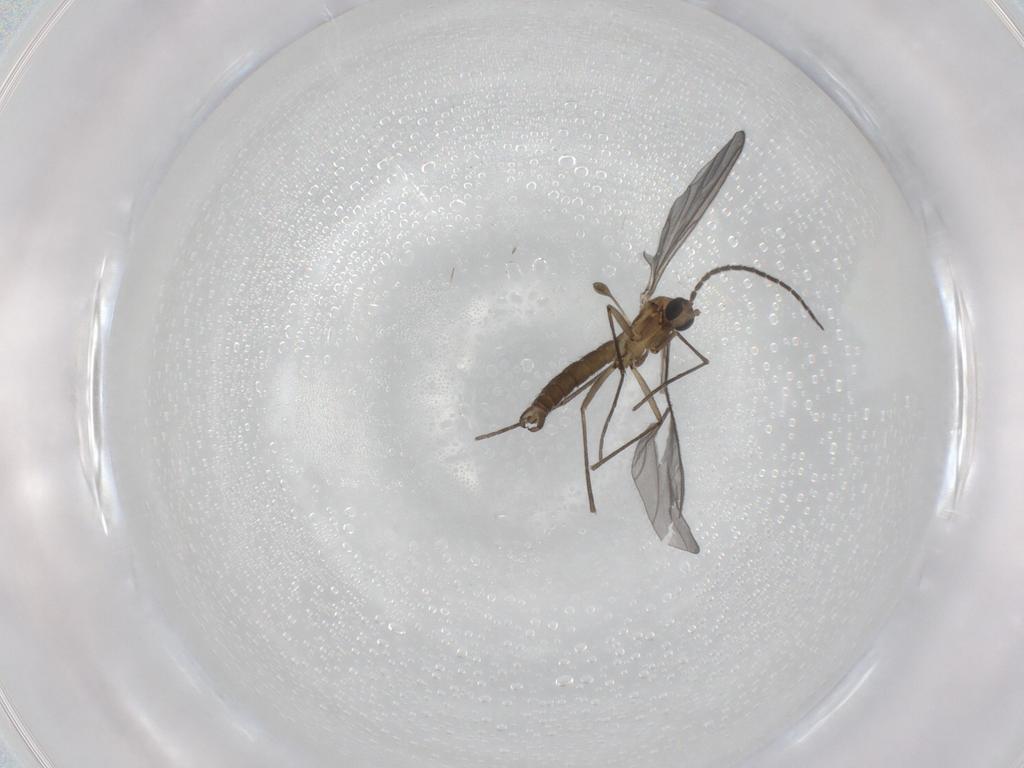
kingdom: Animalia
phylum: Arthropoda
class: Insecta
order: Diptera
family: Sciaridae
